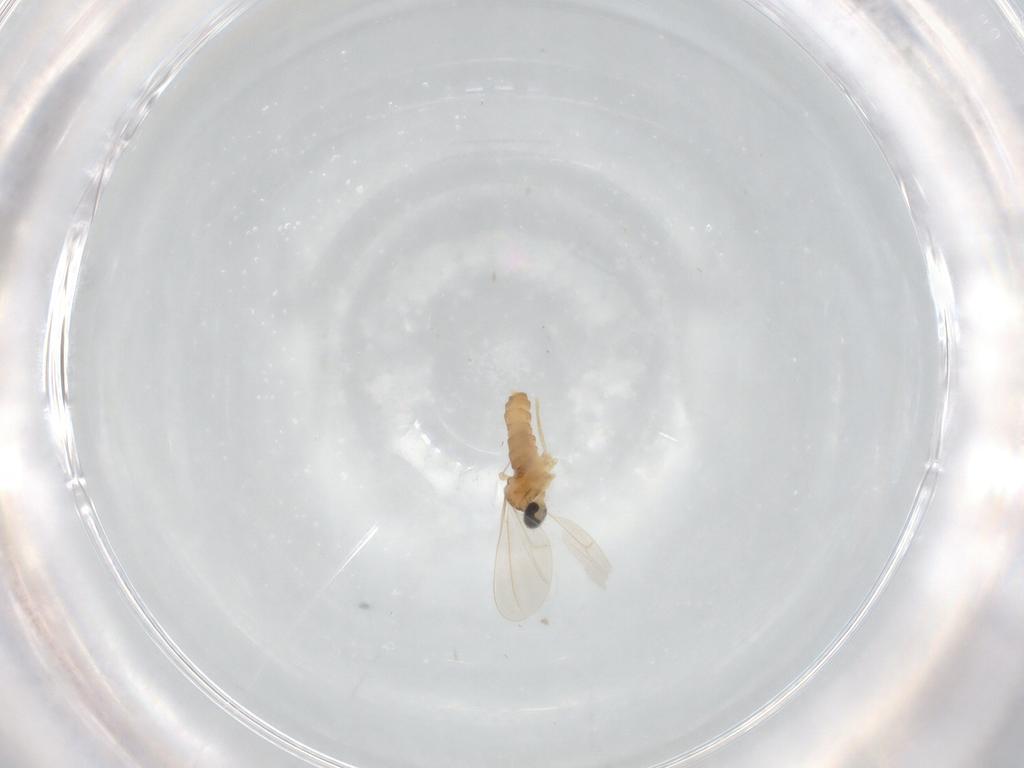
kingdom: Animalia
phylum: Arthropoda
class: Insecta
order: Diptera
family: Hybotidae
